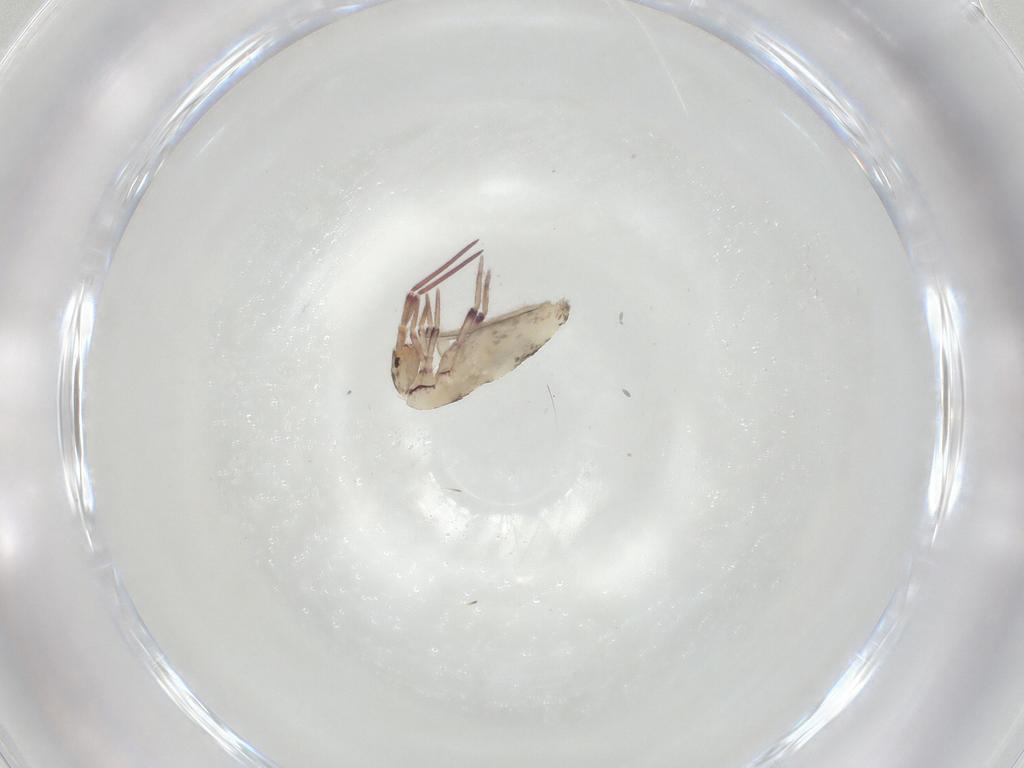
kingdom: Animalia
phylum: Arthropoda
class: Collembola
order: Entomobryomorpha
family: Entomobryidae
